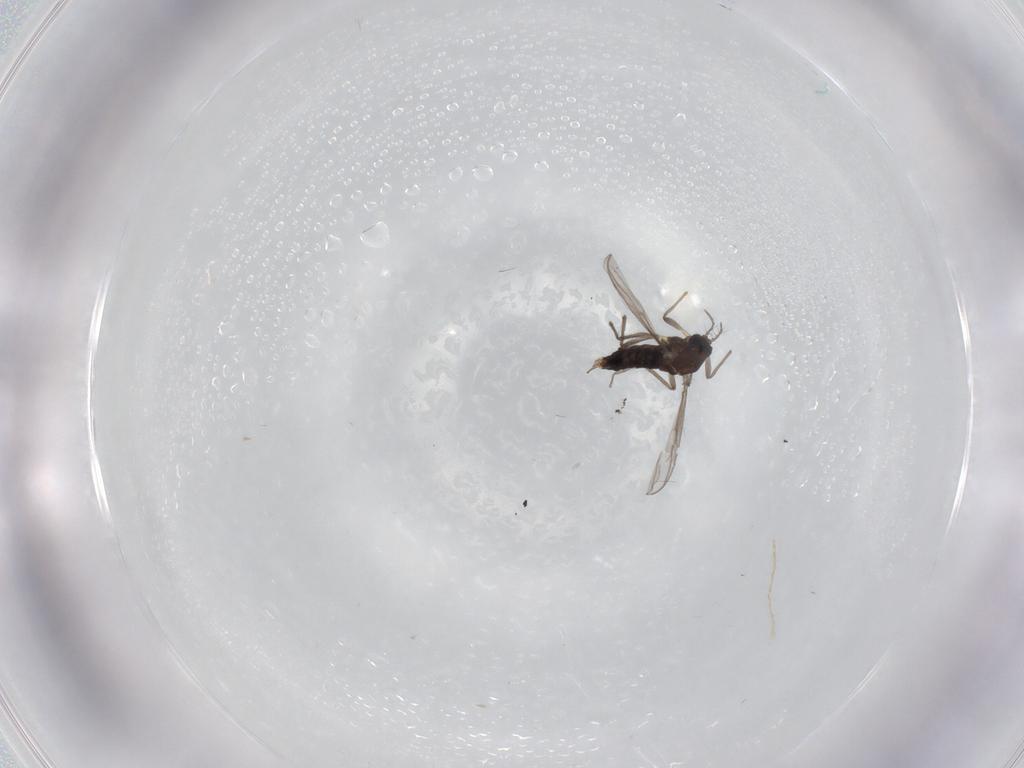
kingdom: Animalia
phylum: Arthropoda
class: Insecta
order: Diptera
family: Chironomidae
